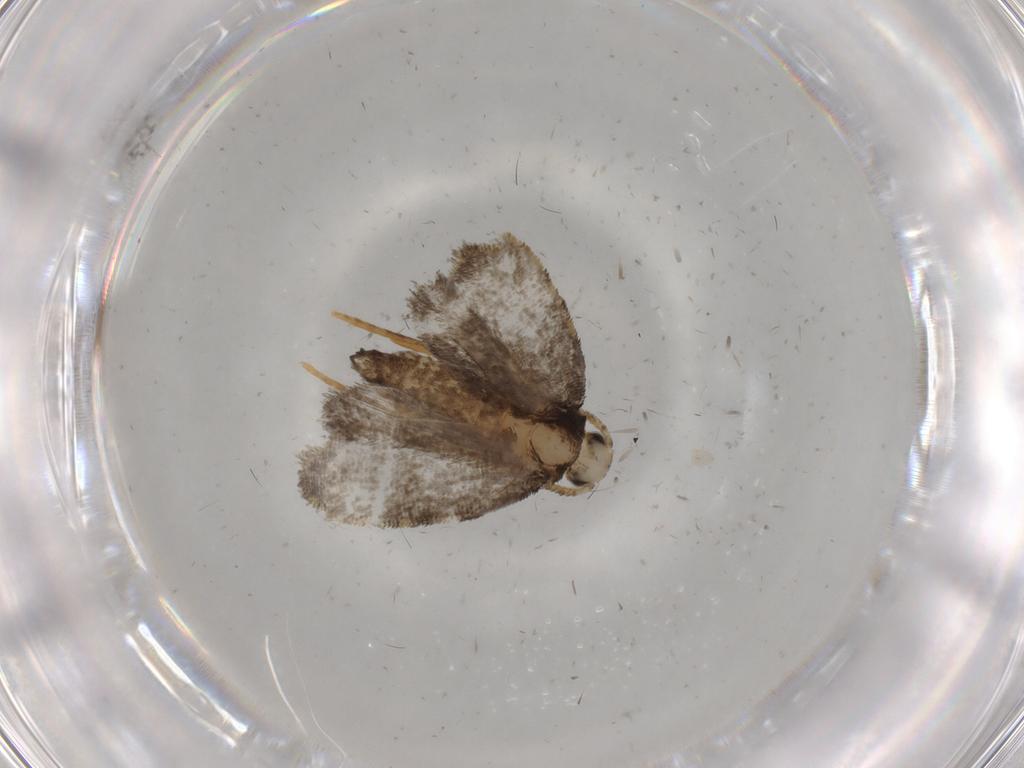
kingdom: Animalia
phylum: Arthropoda
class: Insecta
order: Lepidoptera
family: Psychidae
